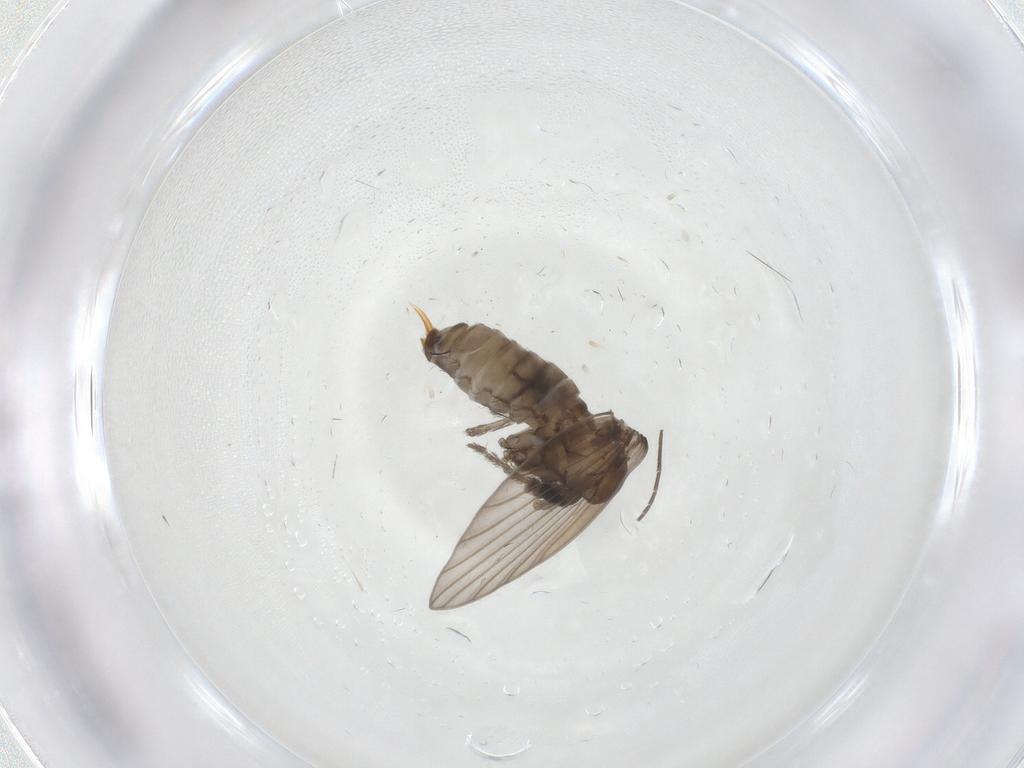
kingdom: Animalia
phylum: Arthropoda
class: Insecta
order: Diptera
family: Psychodidae
